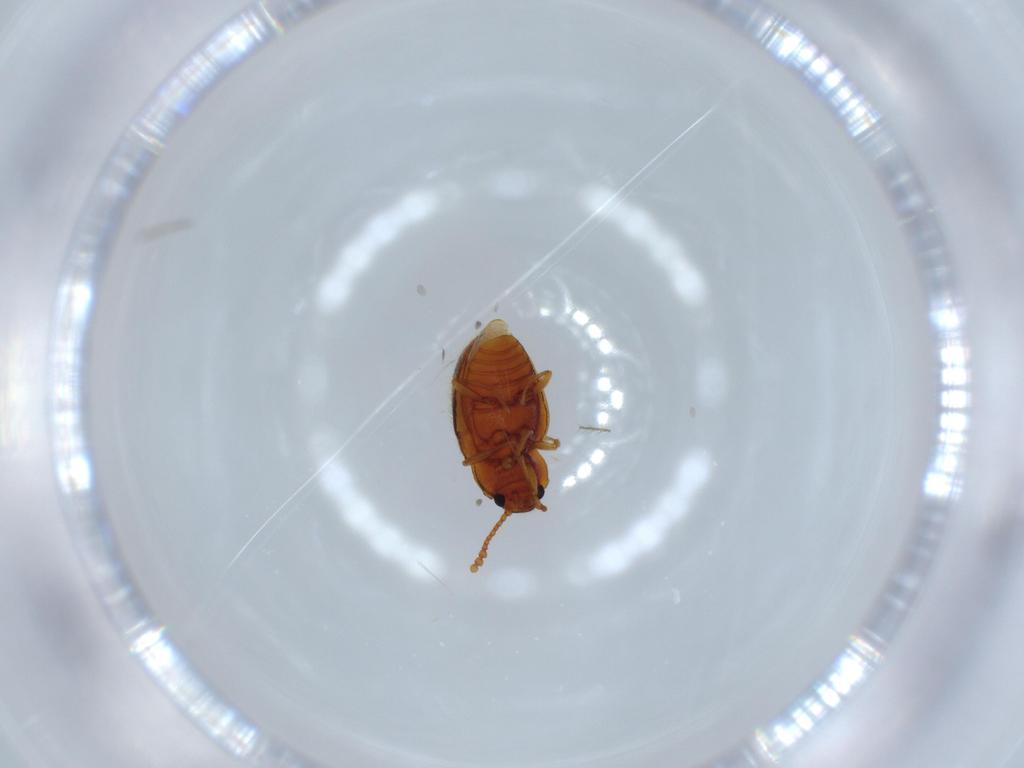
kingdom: Animalia
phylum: Arthropoda
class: Insecta
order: Coleoptera
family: Erotylidae
